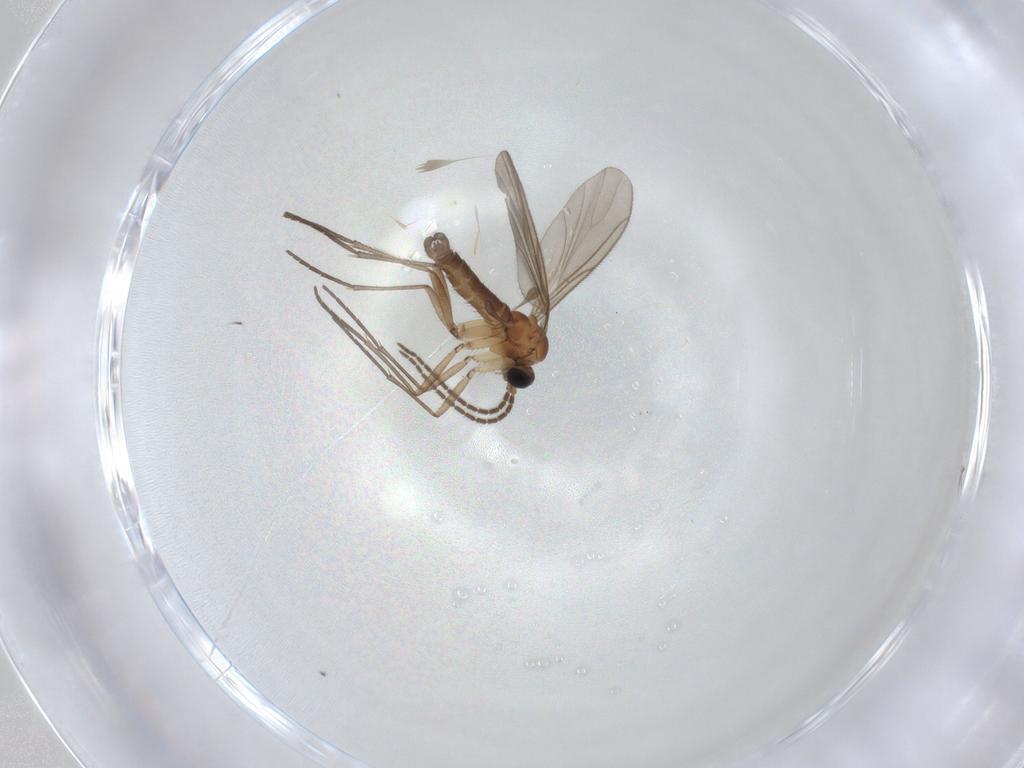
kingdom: Animalia
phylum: Arthropoda
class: Insecta
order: Diptera
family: Sciaridae
